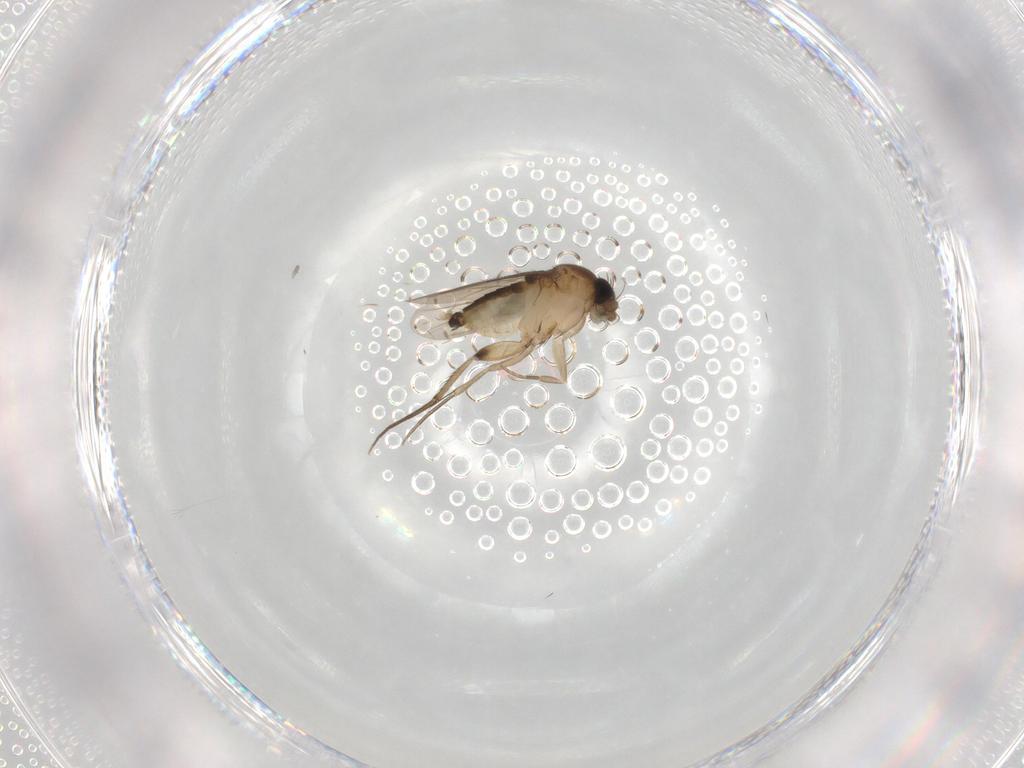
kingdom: Animalia
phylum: Arthropoda
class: Insecta
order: Diptera
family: Phoridae
